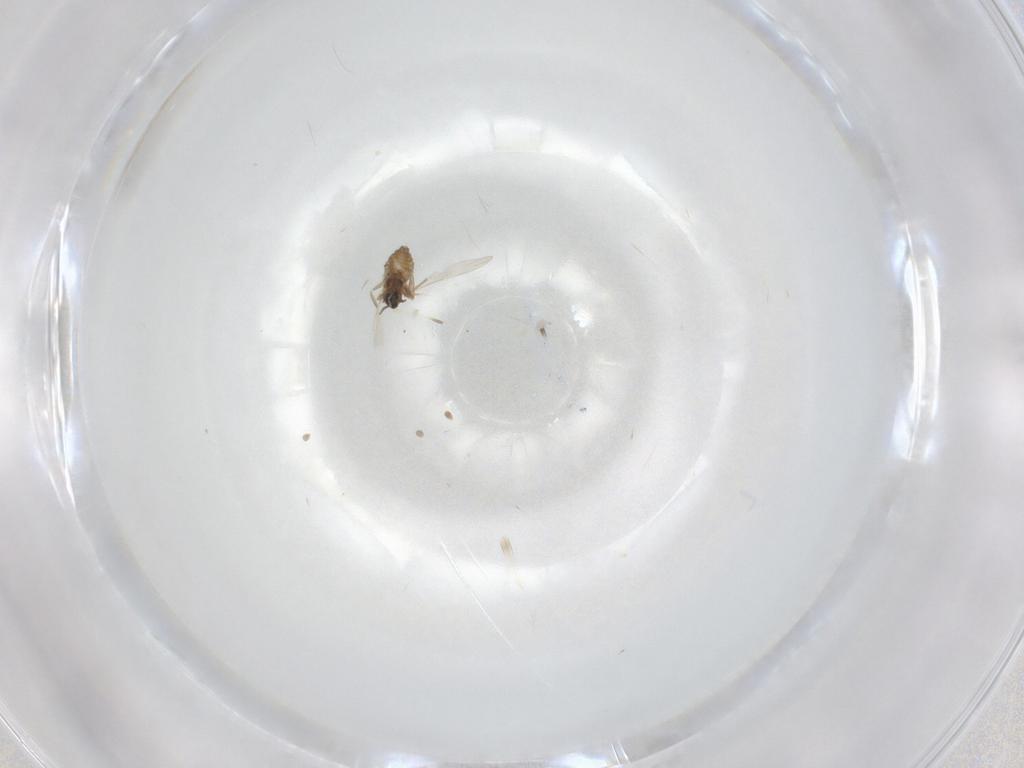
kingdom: Animalia
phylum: Arthropoda
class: Insecta
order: Diptera
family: Cecidomyiidae
